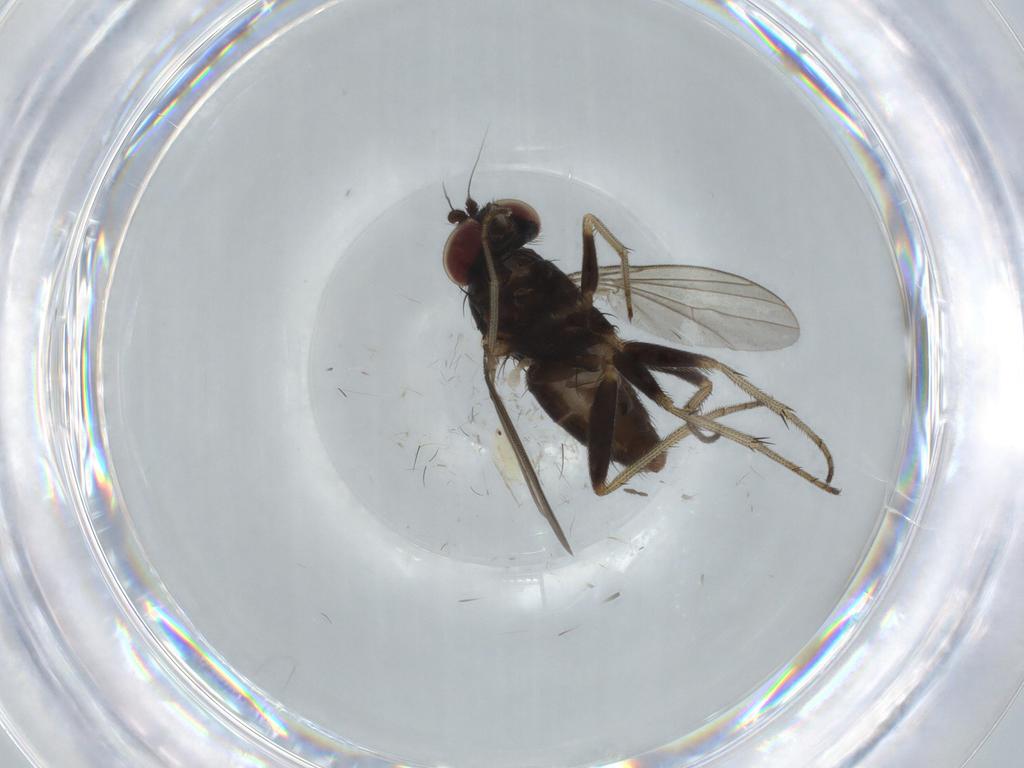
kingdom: Animalia
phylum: Arthropoda
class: Insecta
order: Diptera
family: Dolichopodidae
